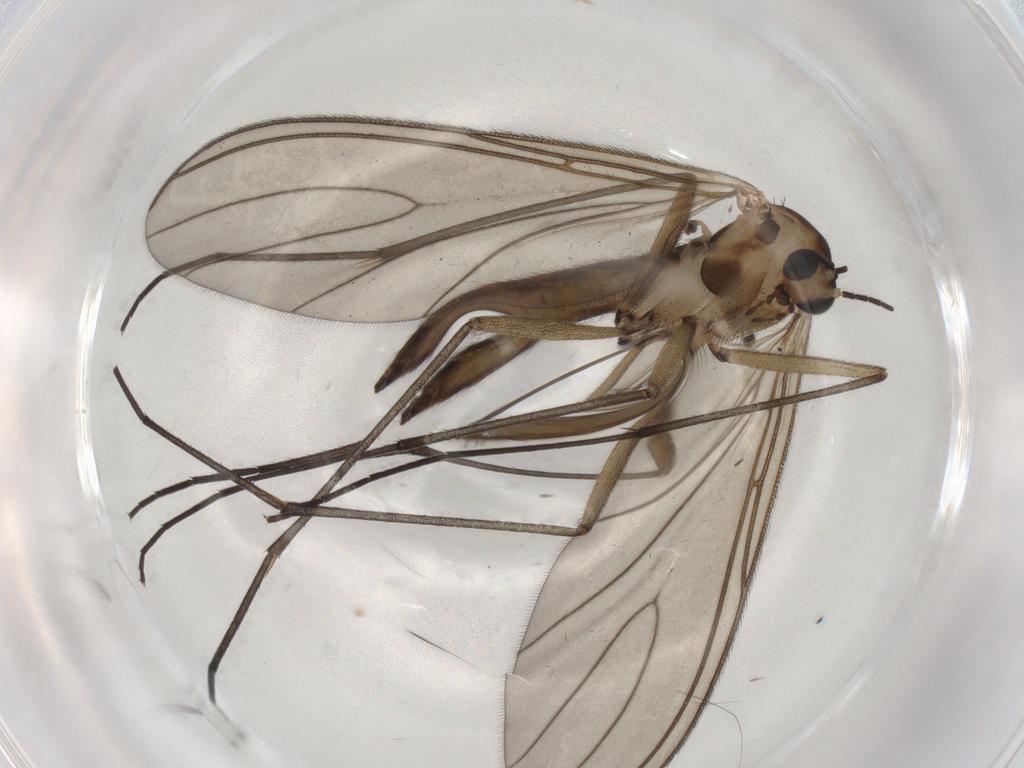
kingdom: Animalia
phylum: Arthropoda
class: Insecta
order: Diptera
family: Sciaridae
